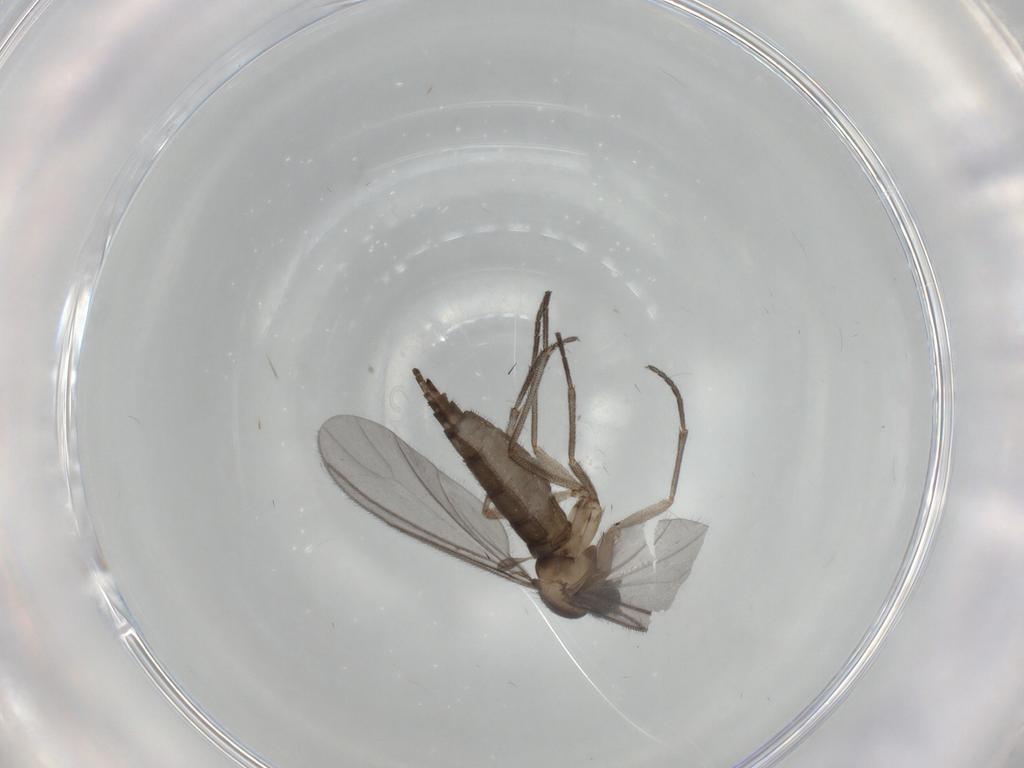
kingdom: Animalia
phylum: Arthropoda
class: Insecta
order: Diptera
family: Sciaridae
